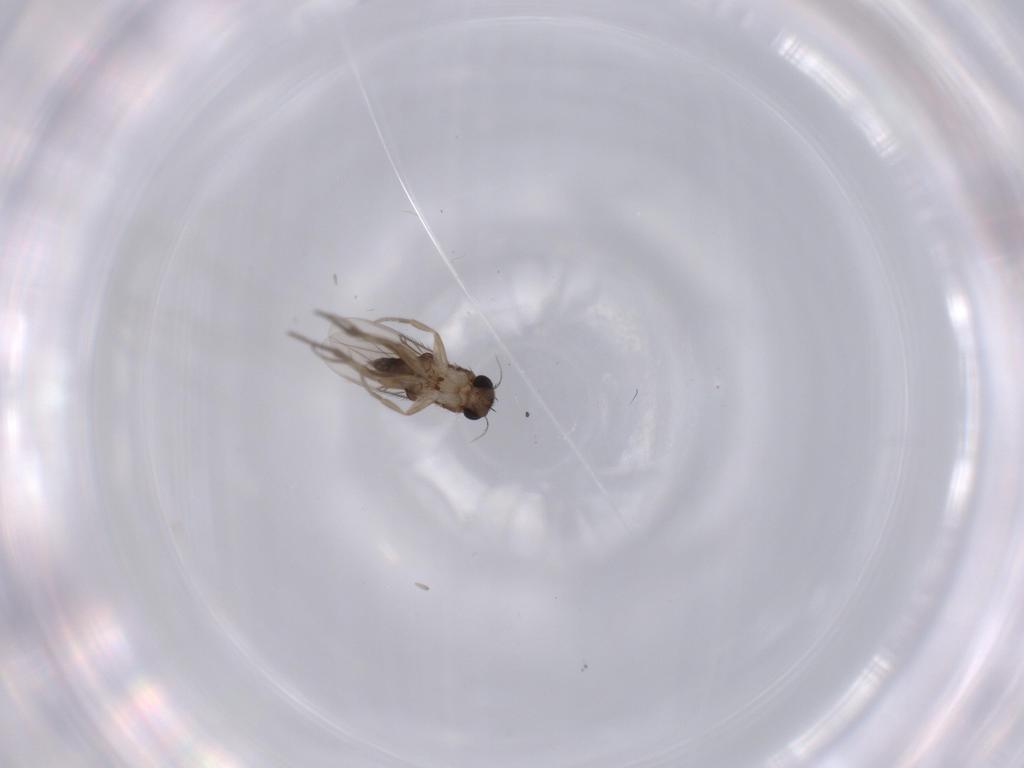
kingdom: Animalia
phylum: Arthropoda
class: Insecta
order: Diptera
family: Phoridae
